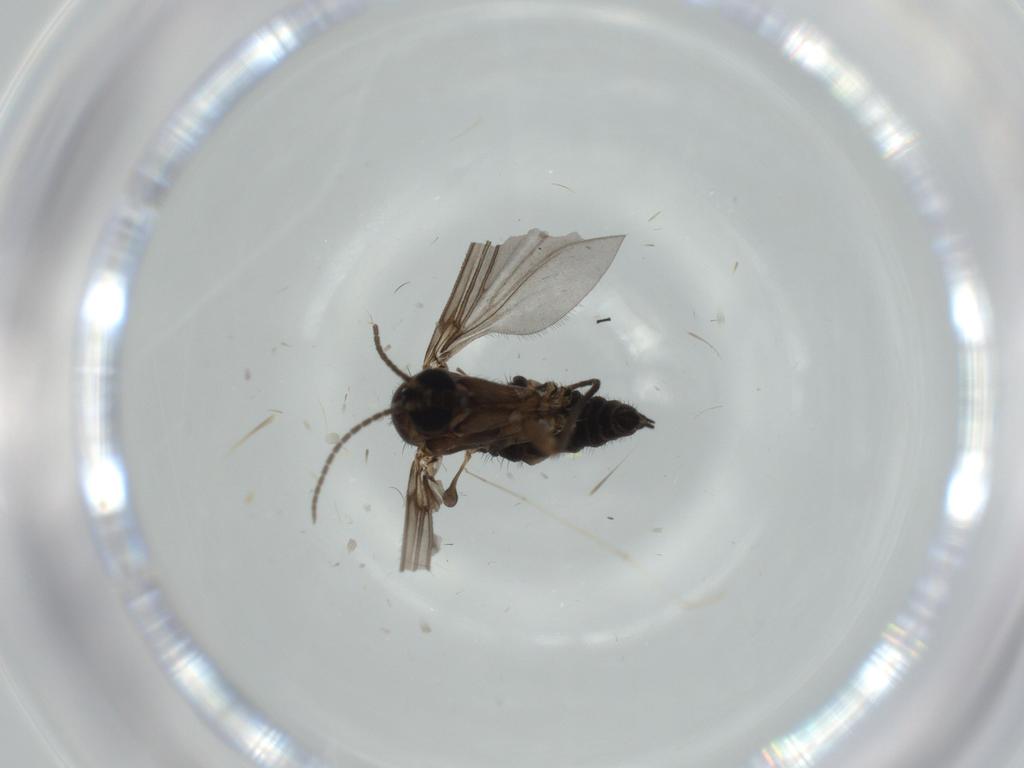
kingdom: Animalia
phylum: Arthropoda
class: Insecta
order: Diptera
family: Sciaridae
